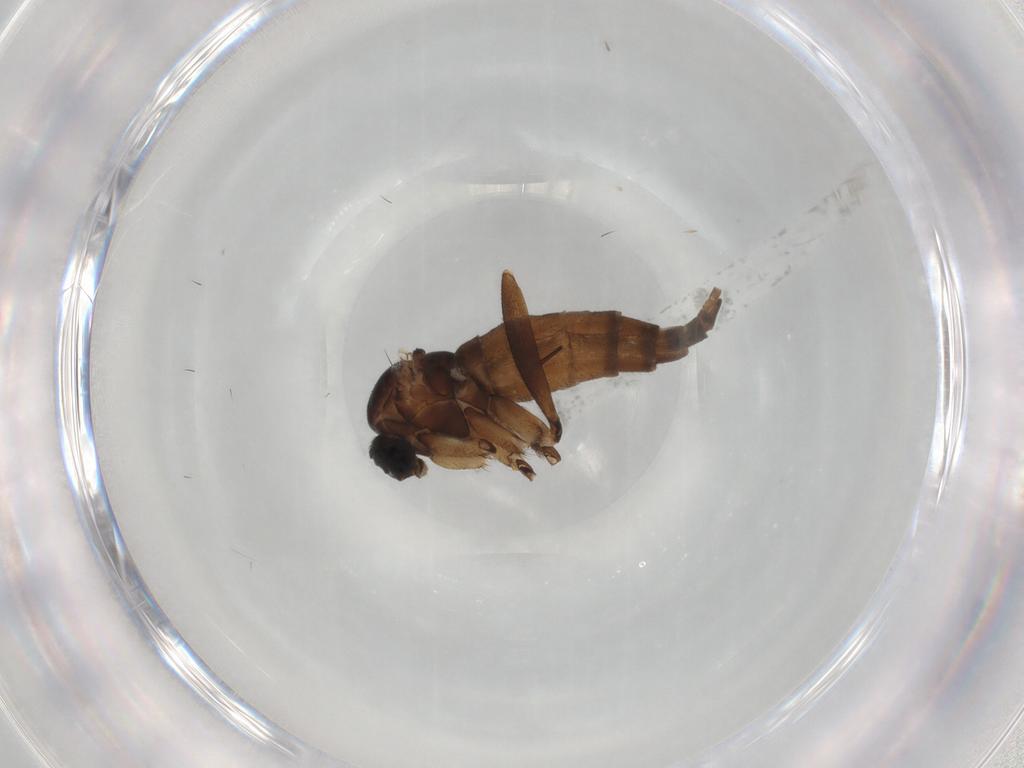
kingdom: Animalia
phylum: Arthropoda
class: Insecta
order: Diptera
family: Sciaridae
